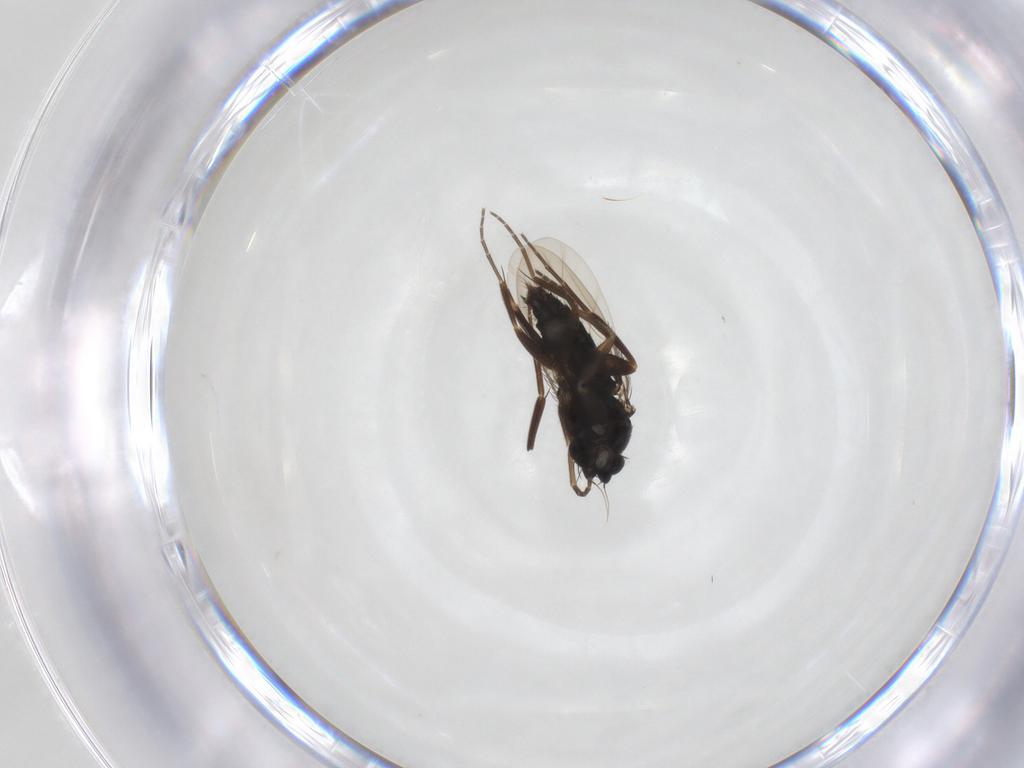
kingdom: Animalia
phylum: Arthropoda
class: Insecta
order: Diptera
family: Phoridae
